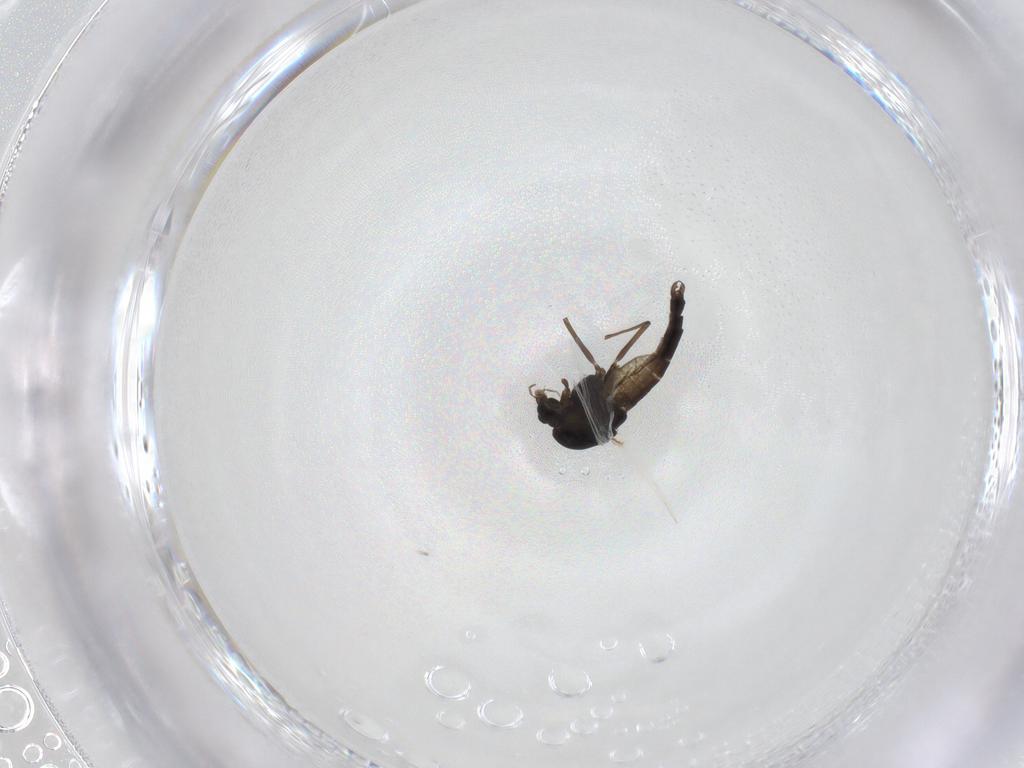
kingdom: Animalia
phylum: Arthropoda
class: Insecta
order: Diptera
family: Chironomidae
